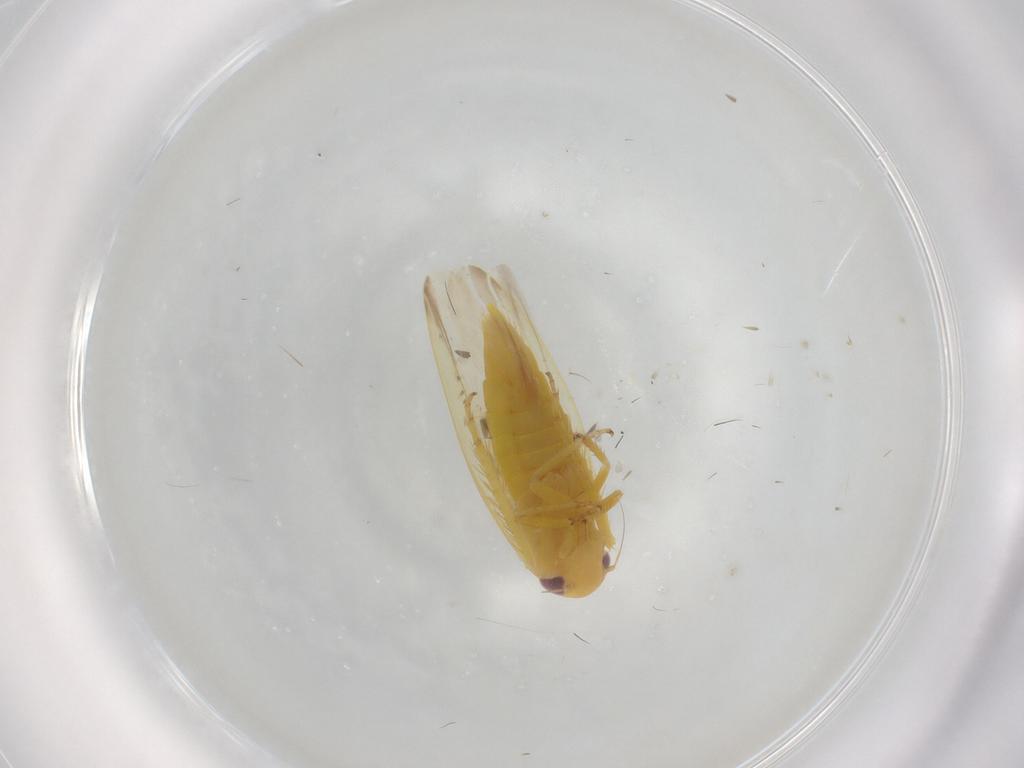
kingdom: Animalia
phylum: Arthropoda
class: Insecta
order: Hemiptera
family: Cicadellidae
